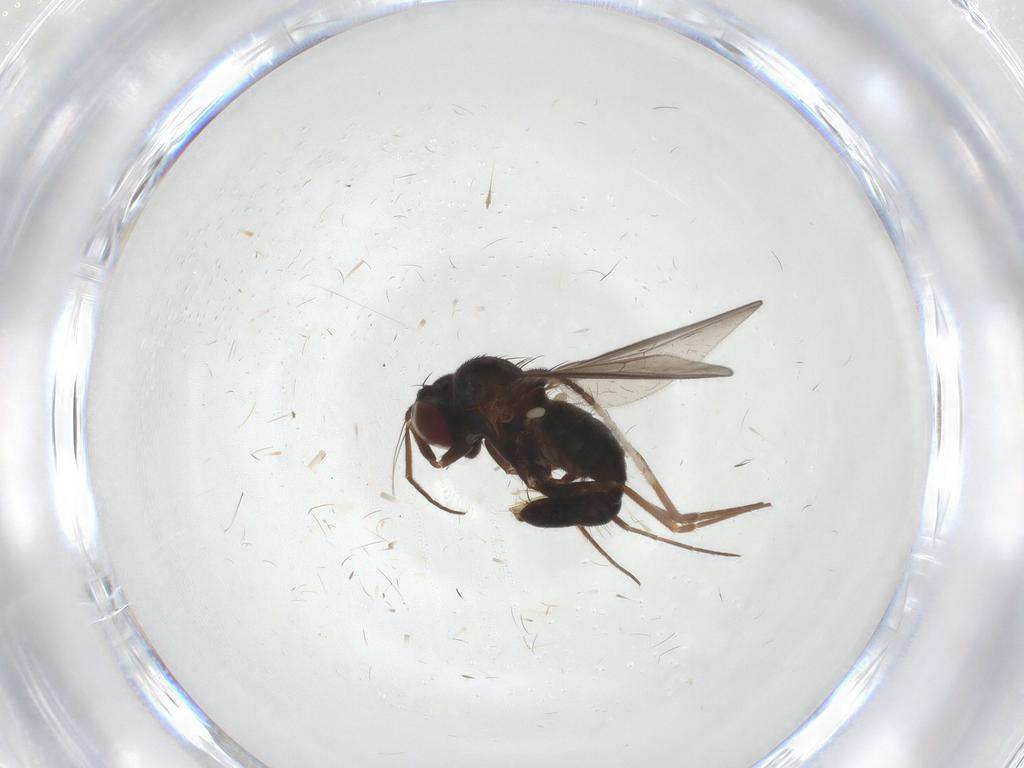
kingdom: Animalia
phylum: Arthropoda
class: Insecta
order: Diptera
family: Dolichopodidae
